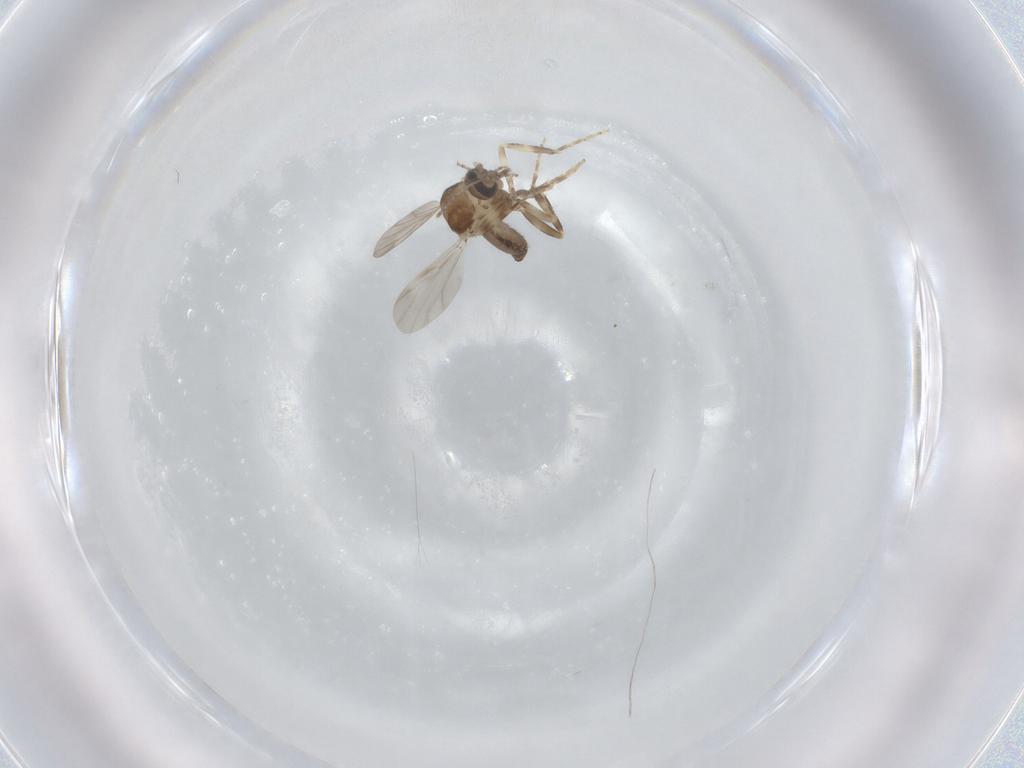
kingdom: Animalia
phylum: Arthropoda
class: Insecta
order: Diptera
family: Ceratopogonidae
